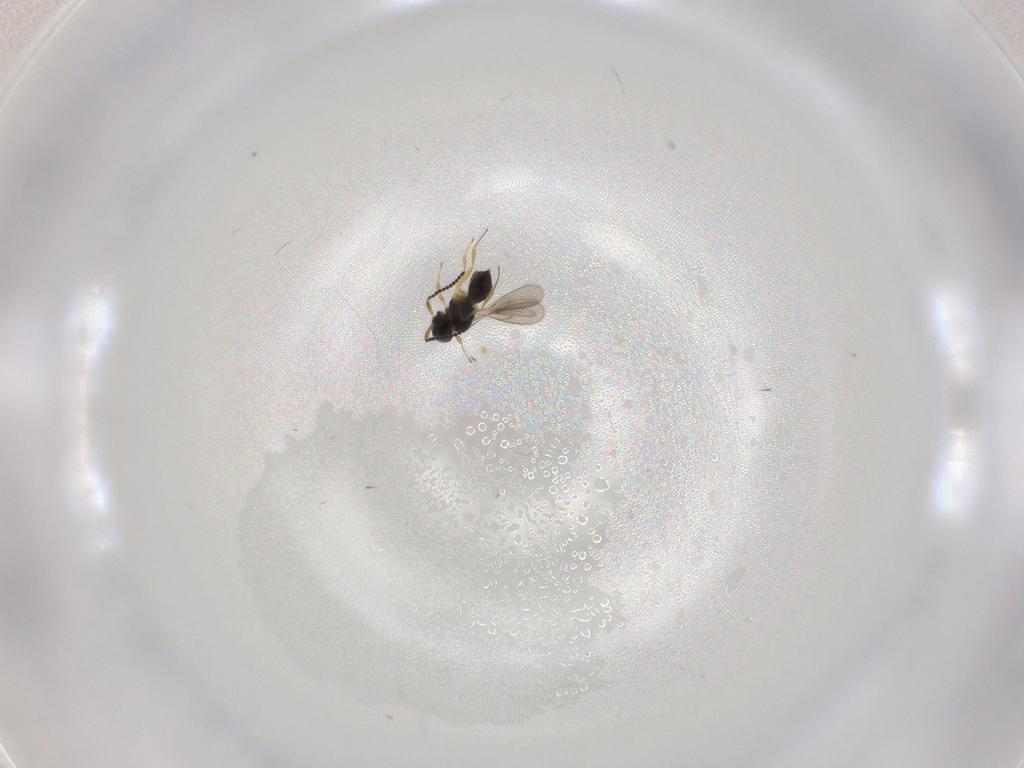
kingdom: Animalia
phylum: Arthropoda
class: Insecta
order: Hymenoptera
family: Scelionidae
